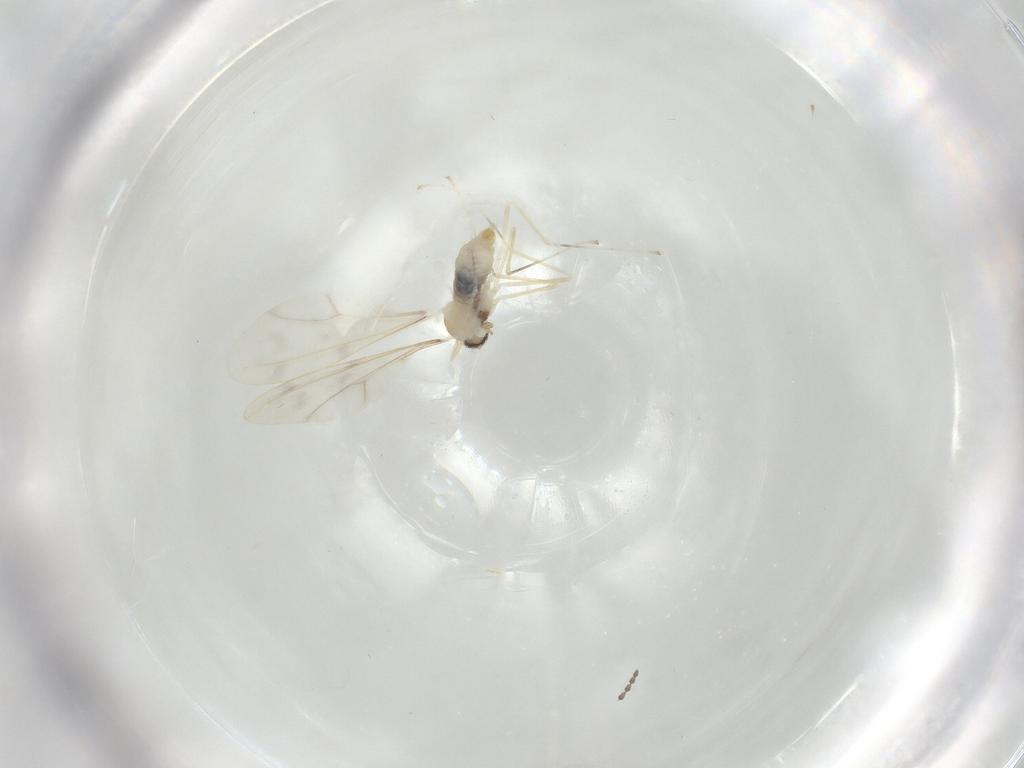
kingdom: Animalia
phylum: Arthropoda
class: Insecta
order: Diptera
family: Cecidomyiidae
